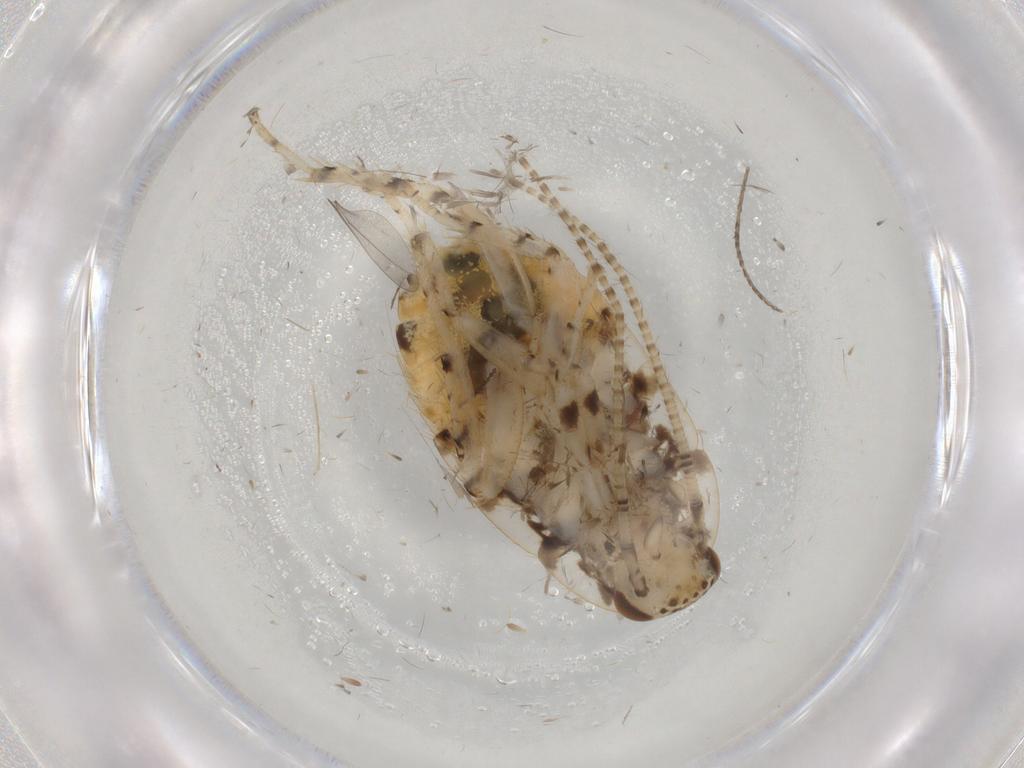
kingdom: Animalia
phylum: Arthropoda
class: Insecta
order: Blattodea
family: Ectobiidae
